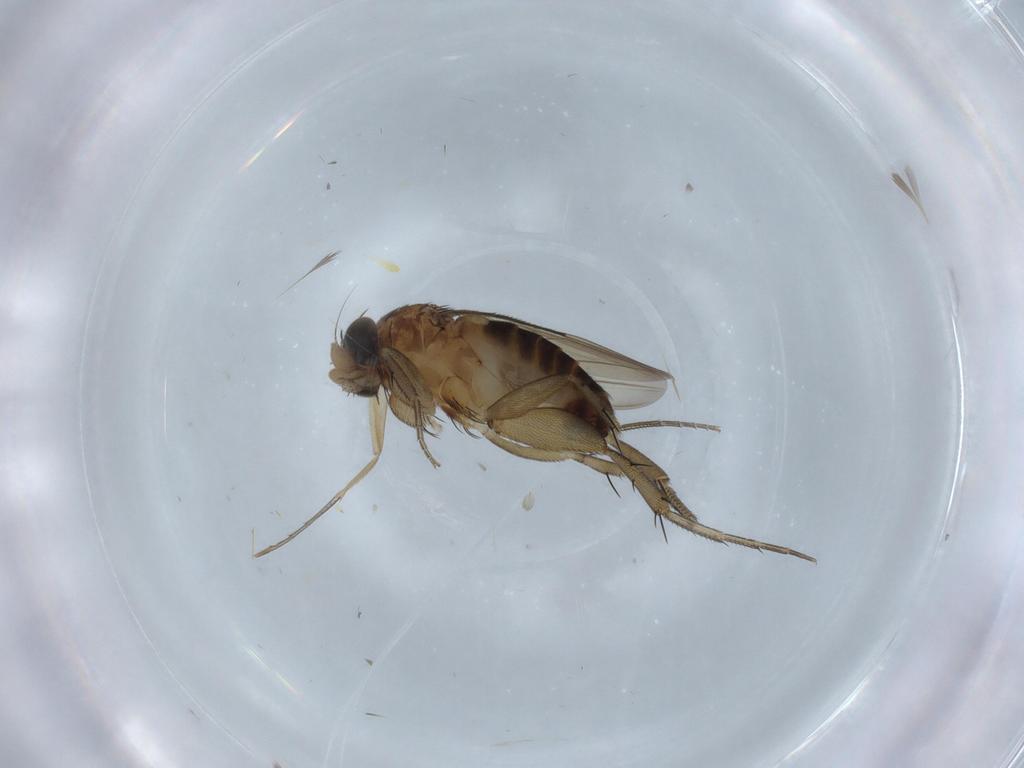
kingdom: Animalia
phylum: Arthropoda
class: Insecta
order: Diptera
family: Phoridae
